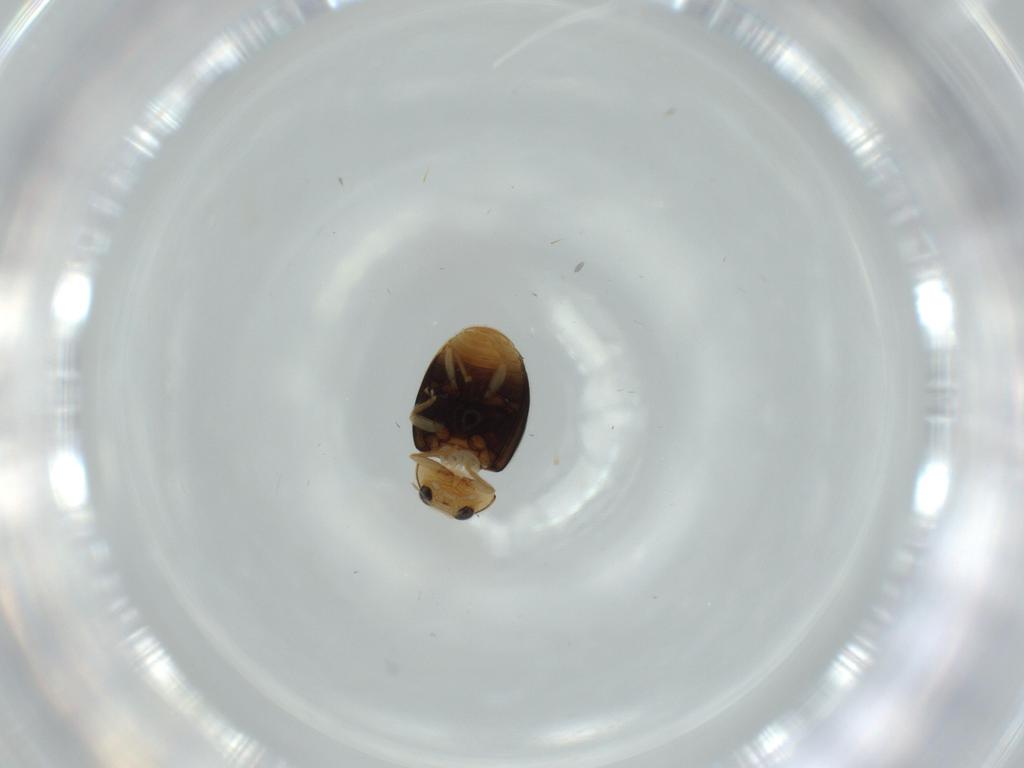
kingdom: Animalia
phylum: Arthropoda
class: Insecta
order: Coleoptera
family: Coccinellidae
